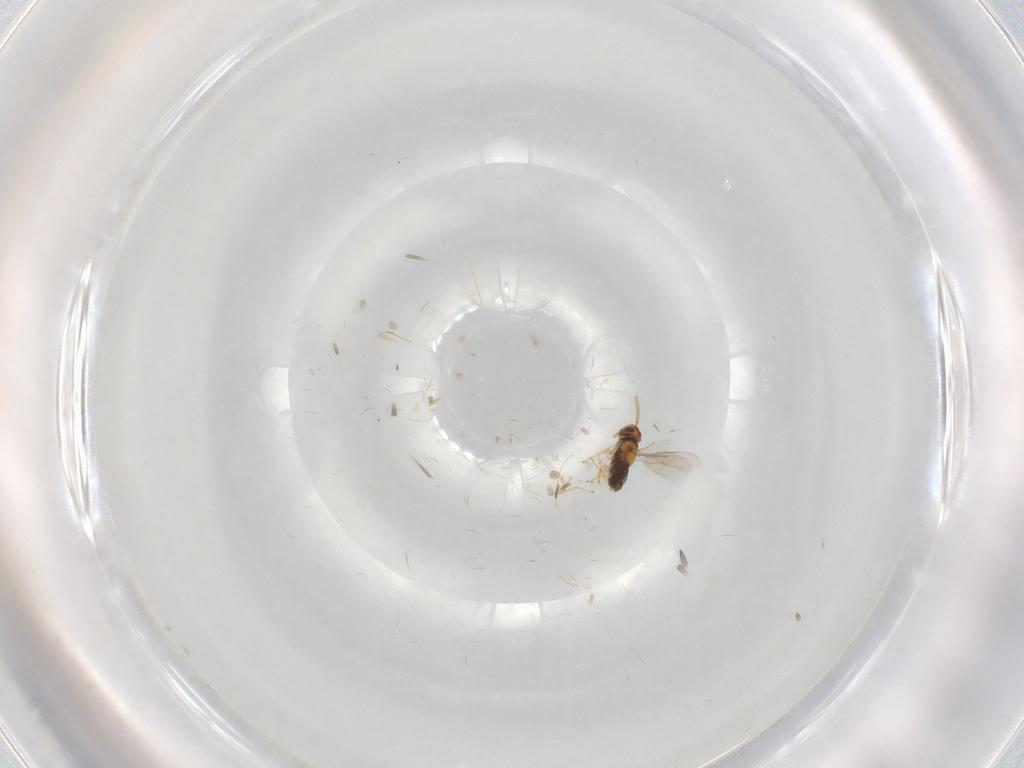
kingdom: Animalia
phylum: Arthropoda
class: Insecta
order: Hymenoptera
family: Aphelinidae
